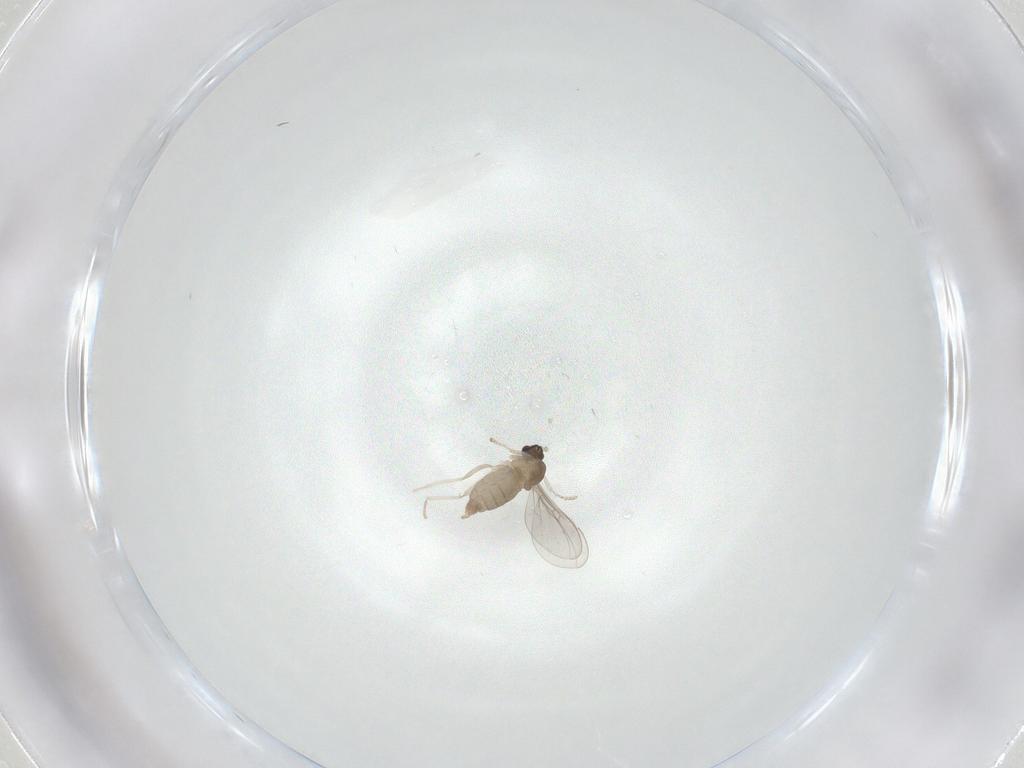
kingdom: Animalia
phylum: Arthropoda
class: Insecta
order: Diptera
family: Cecidomyiidae
